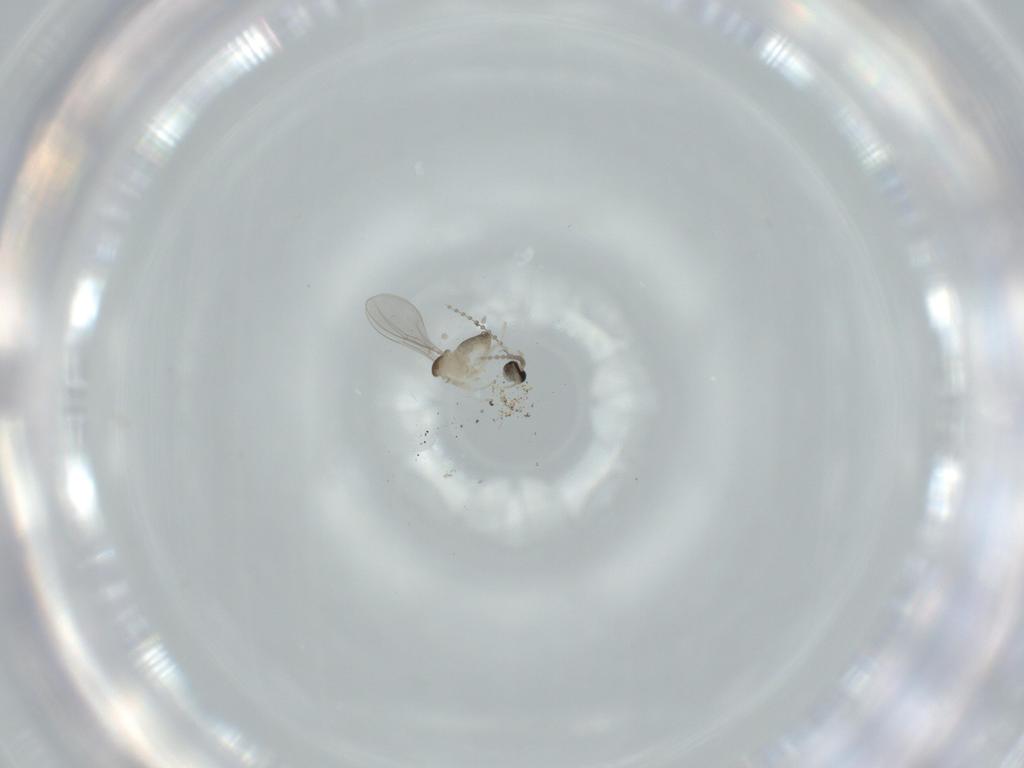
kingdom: Animalia
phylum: Arthropoda
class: Insecta
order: Diptera
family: Cecidomyiidae
